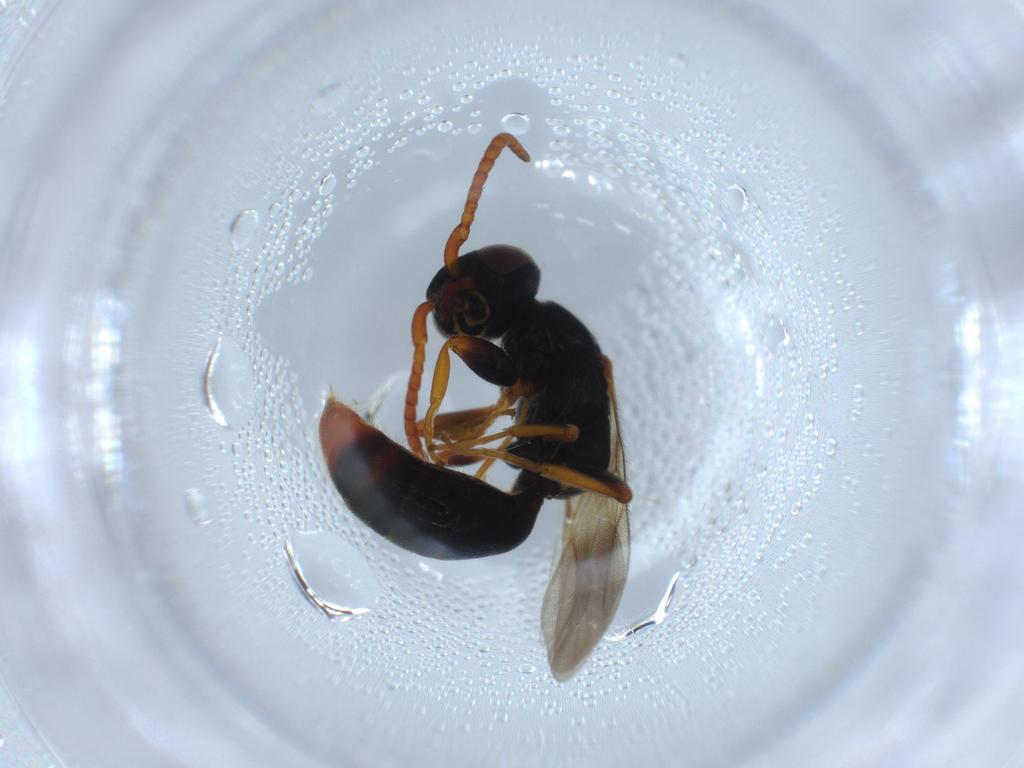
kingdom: Animalia
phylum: Arthropoda
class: Insecta
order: Hymenoptera
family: Bethylidae
